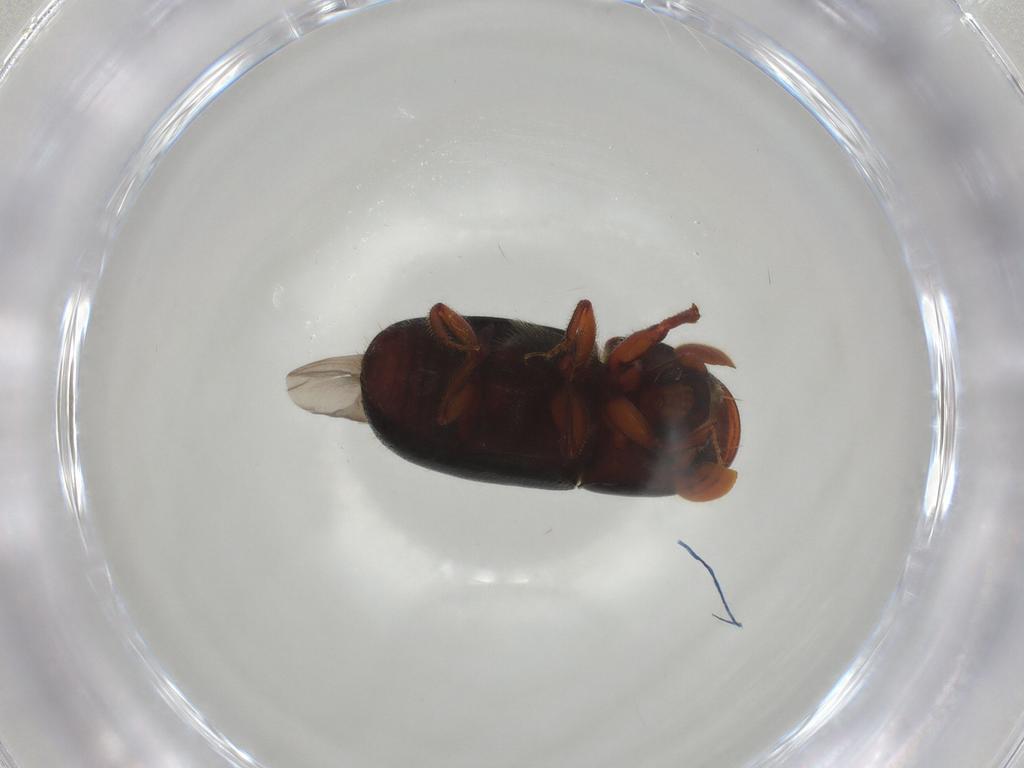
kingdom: Animalia
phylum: Arthropoda
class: Insecta
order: Coleoptera
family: Curculionidae
